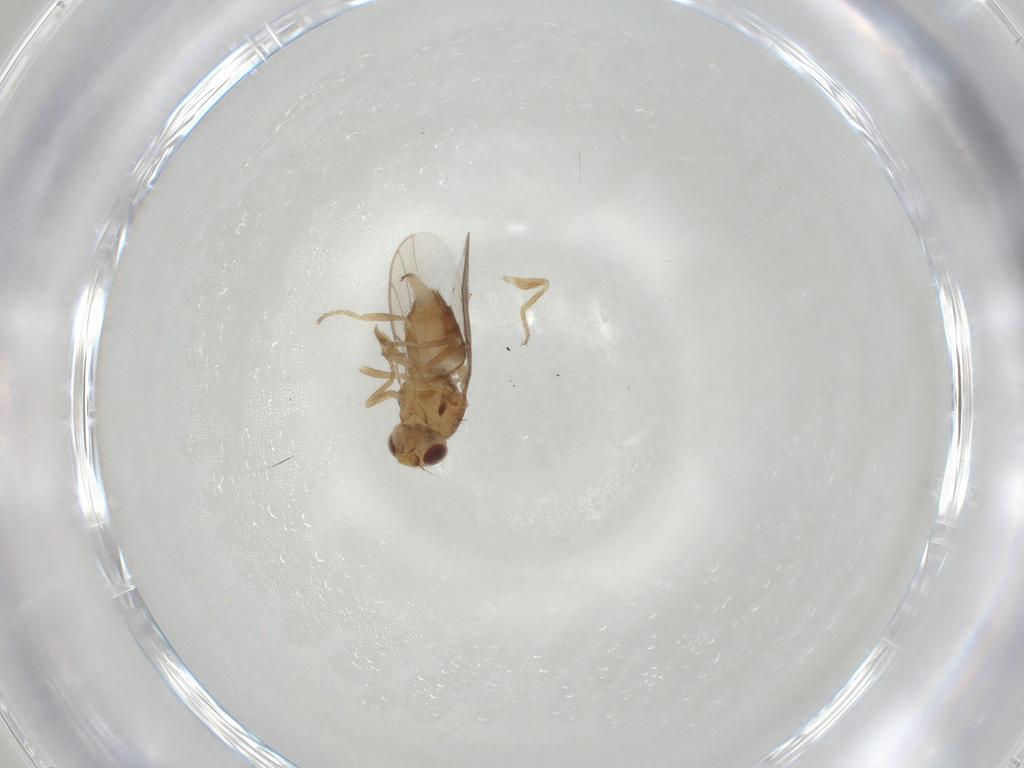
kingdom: Animalia
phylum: Arthropoda
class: Insecta
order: Diptera
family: Chloropidae
